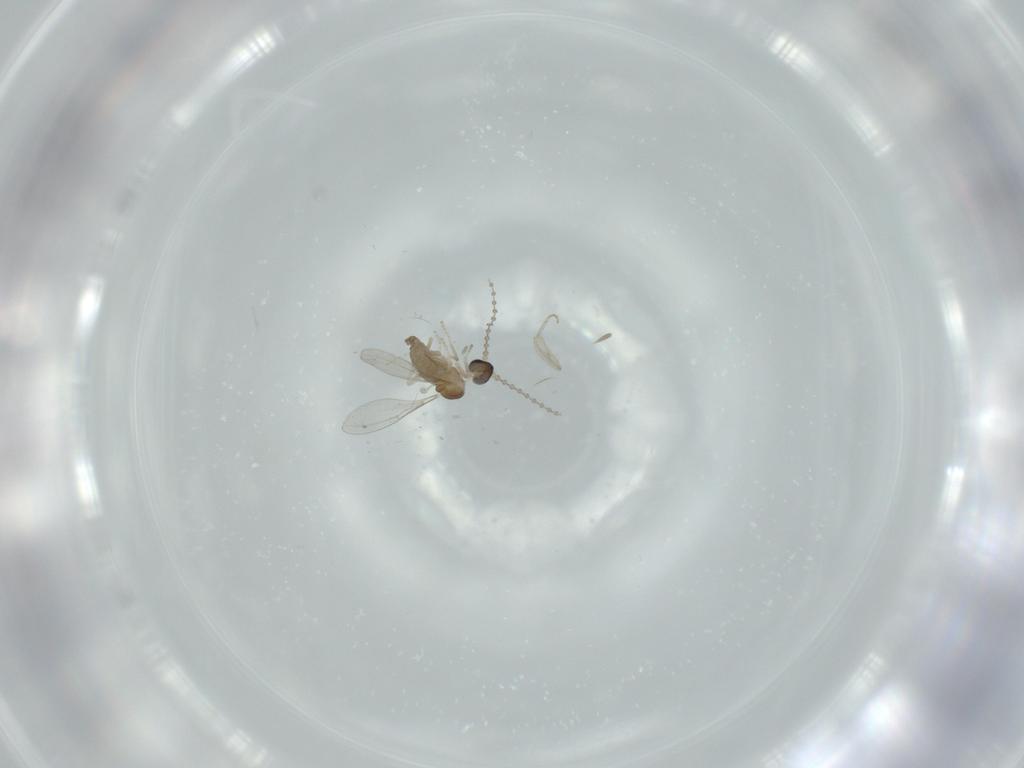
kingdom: Animalia
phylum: Arthropoda
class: Insecta
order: Diptera
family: Cecidomyiidae
